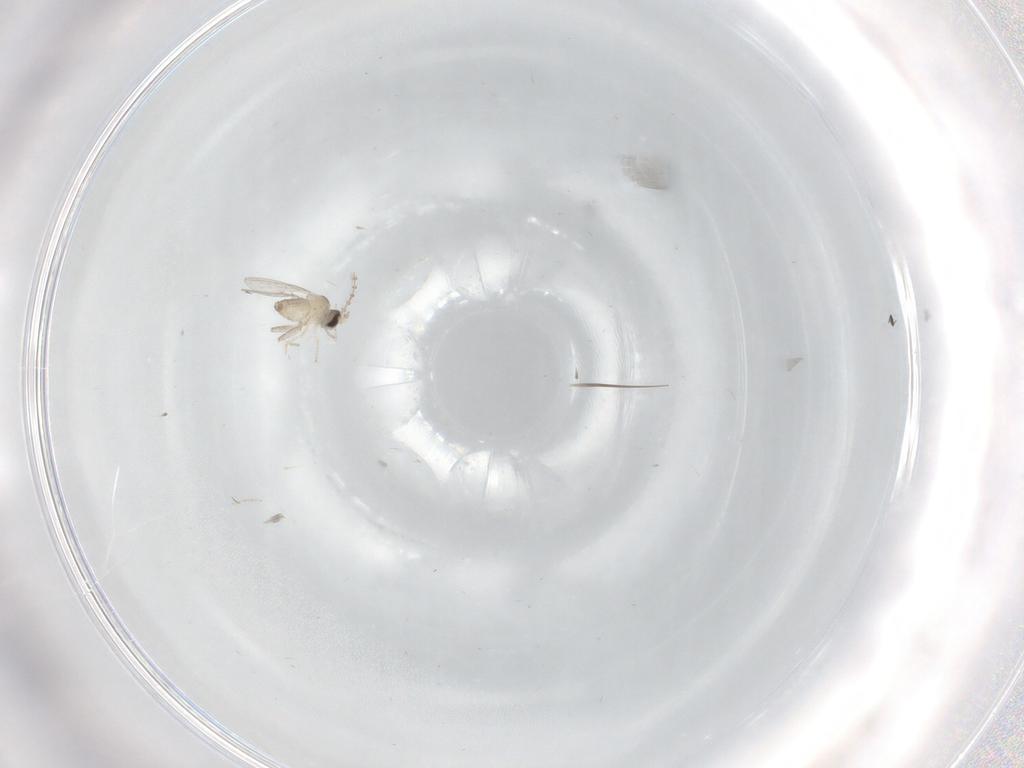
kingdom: Animalia
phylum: Arthropoda
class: Insecta
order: Diptera
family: Cecidomyiidae
